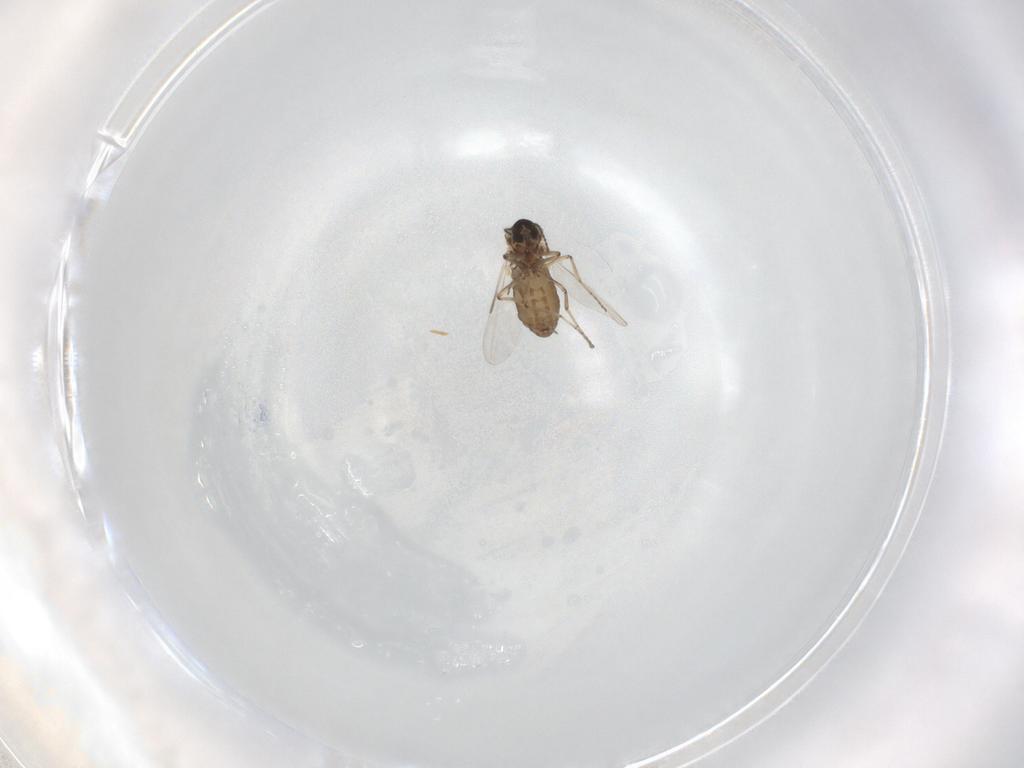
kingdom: Animalia
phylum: Arthropoda
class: Insecta
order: Diptera
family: Ceratopogonidae
